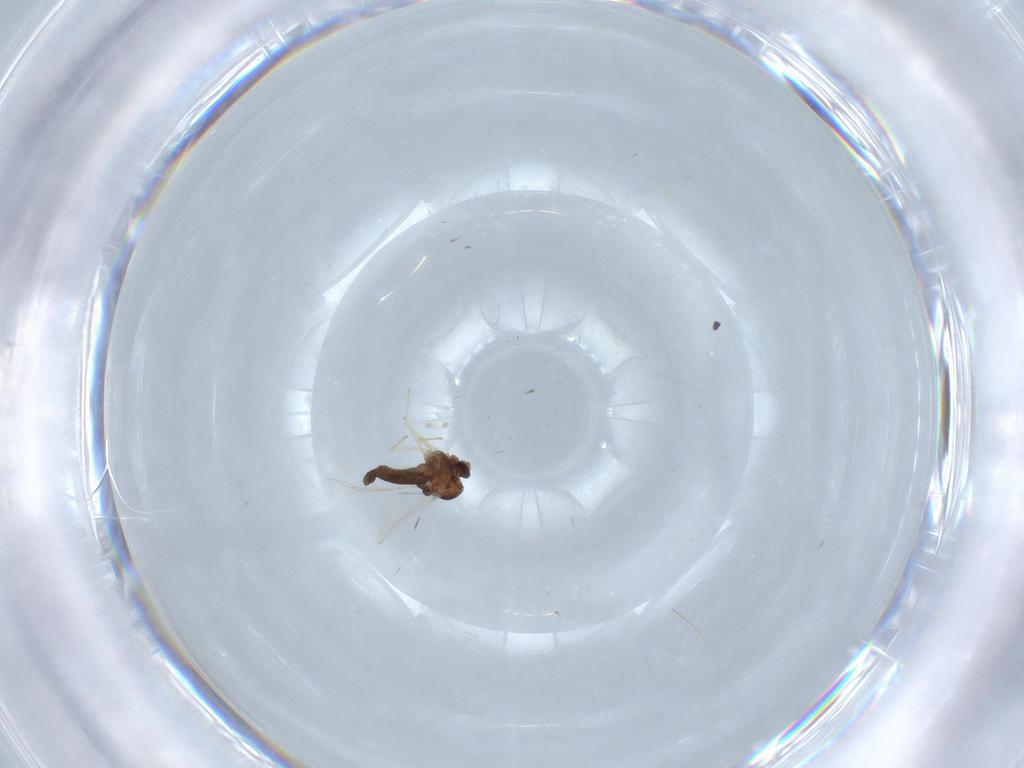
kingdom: Animalia
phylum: Arthropoda
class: Insecta
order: Diptera
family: Chironomidae
